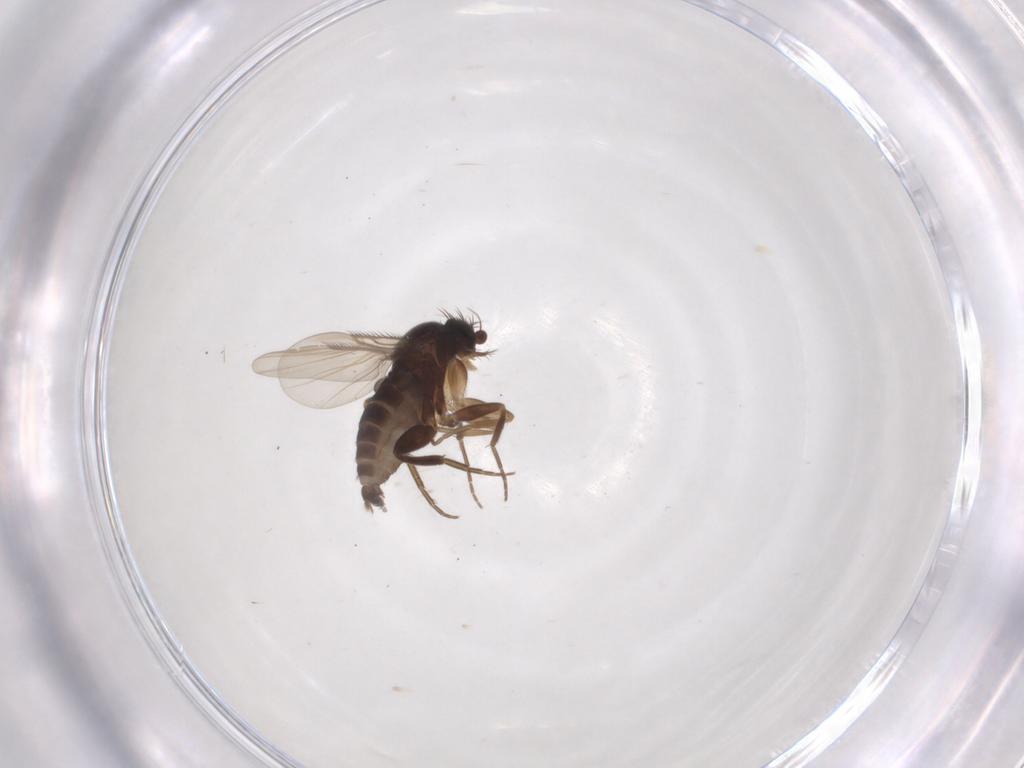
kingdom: Animalia
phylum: Arthropoda
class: Insecta
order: Diptera
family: Phoridae
